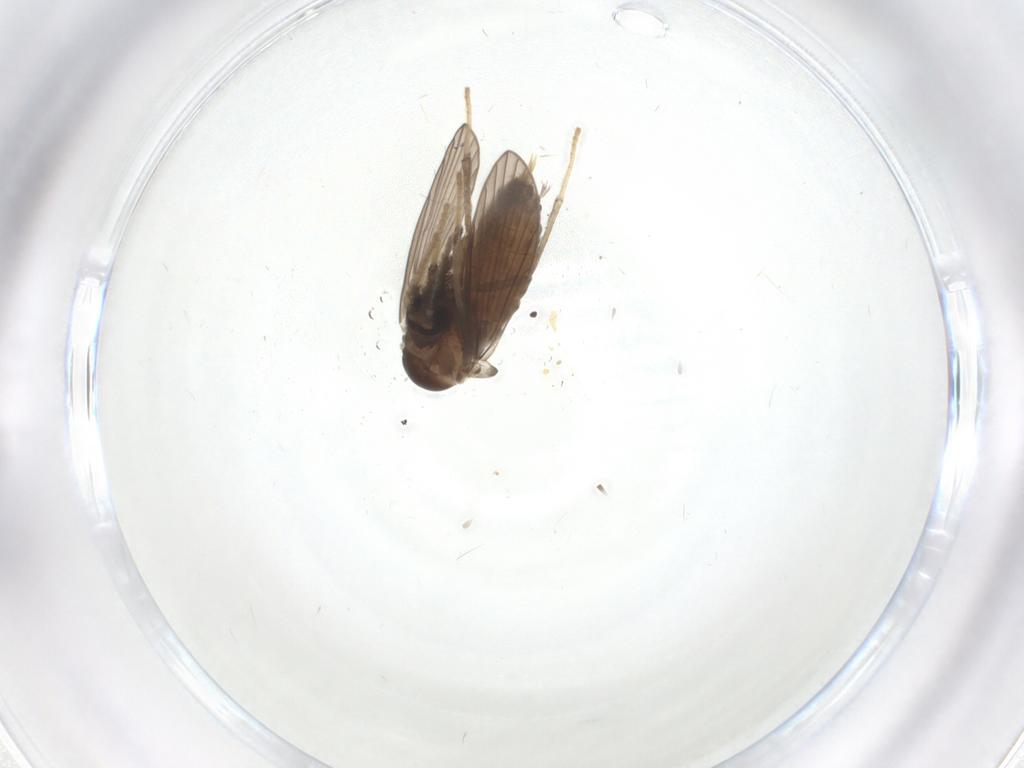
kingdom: Animalia
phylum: Arthropoda
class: Insecta
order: Diptera
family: Psychodidae
